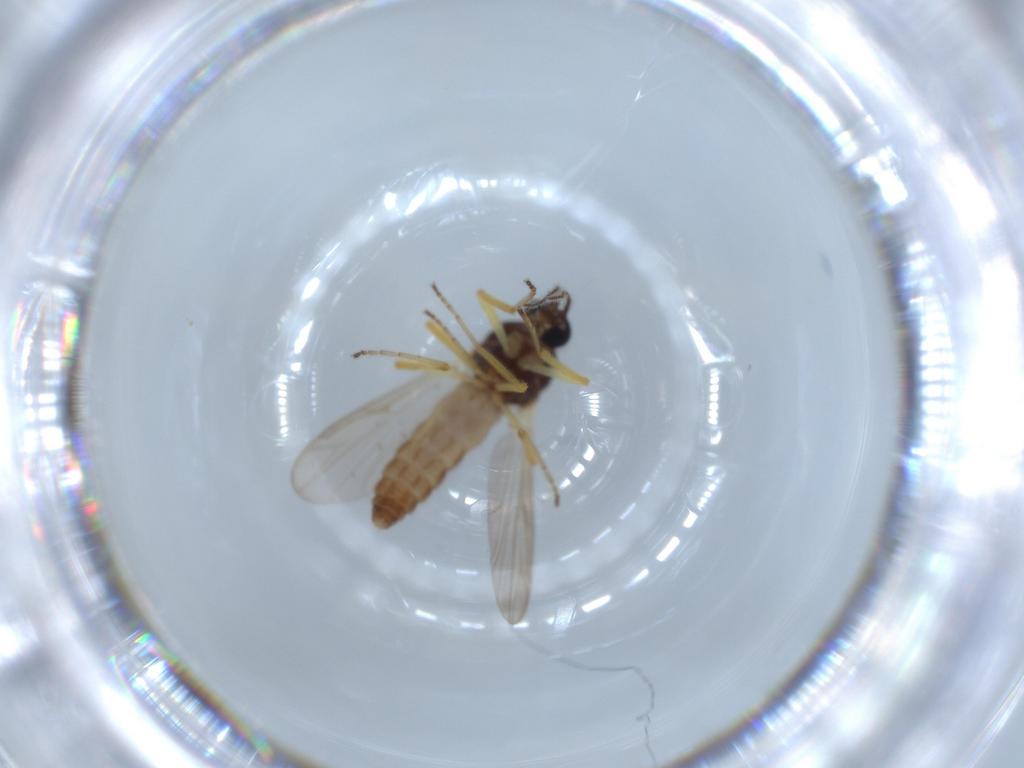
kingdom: Animalia
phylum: Arthropoda
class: Insecta
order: Diptera
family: Ceratopogonidae
